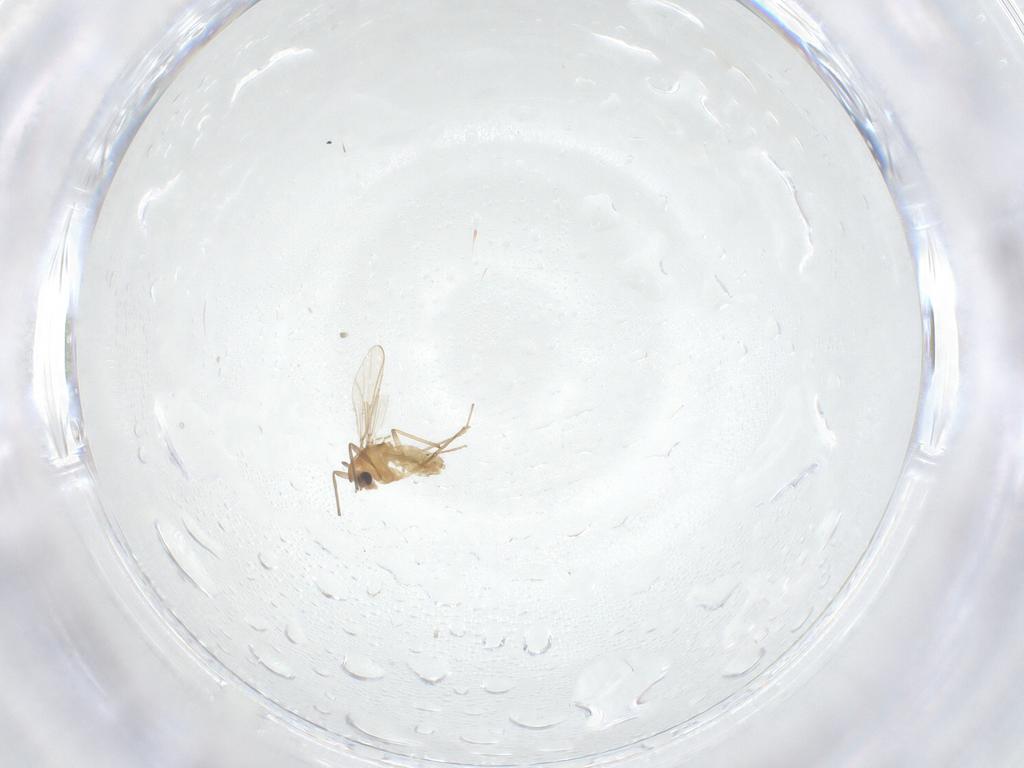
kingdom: Animalia
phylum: Arthropoda
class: Insecta
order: Diptera
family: Chironomidae
